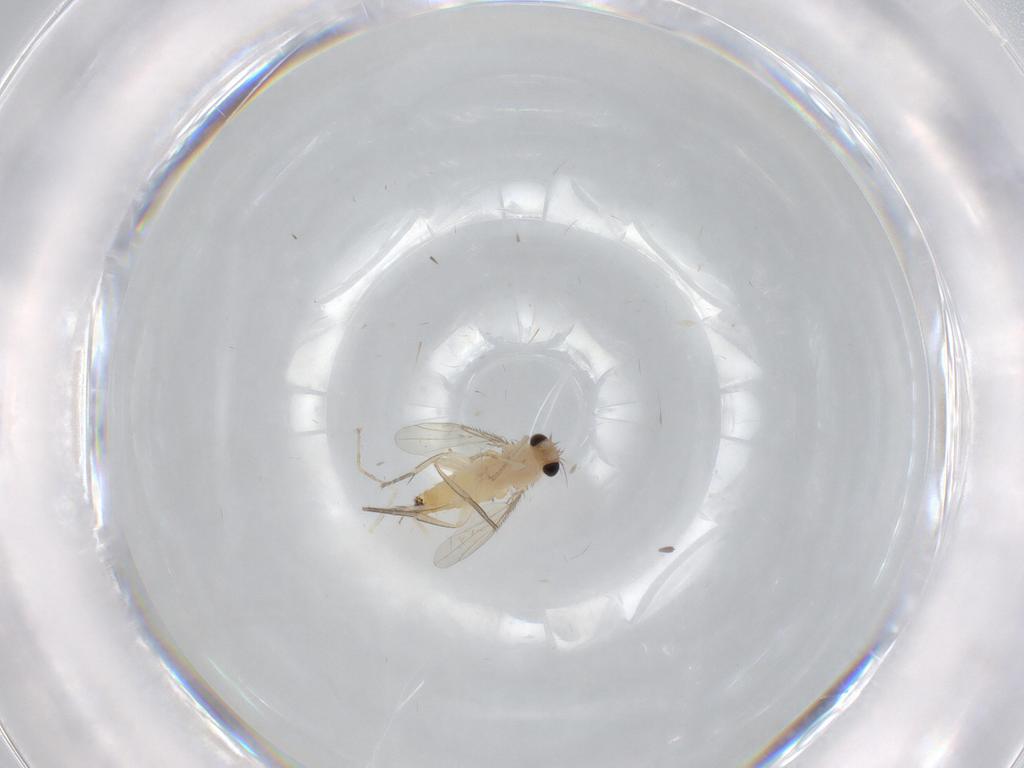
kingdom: Animalia
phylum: Arthropoda
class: Insecta
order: Diptera
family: Phoridae
